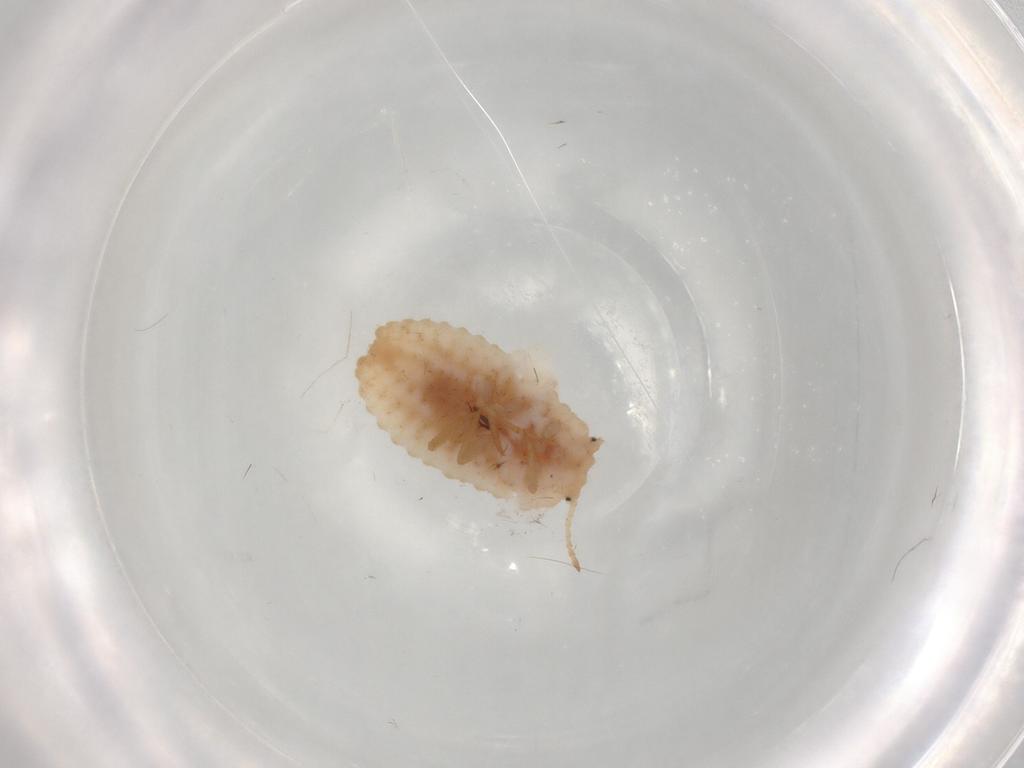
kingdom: Animalia
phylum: Arthropoda
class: Insecta
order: Hemiptera
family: Coccoidea_incertae_sedis
